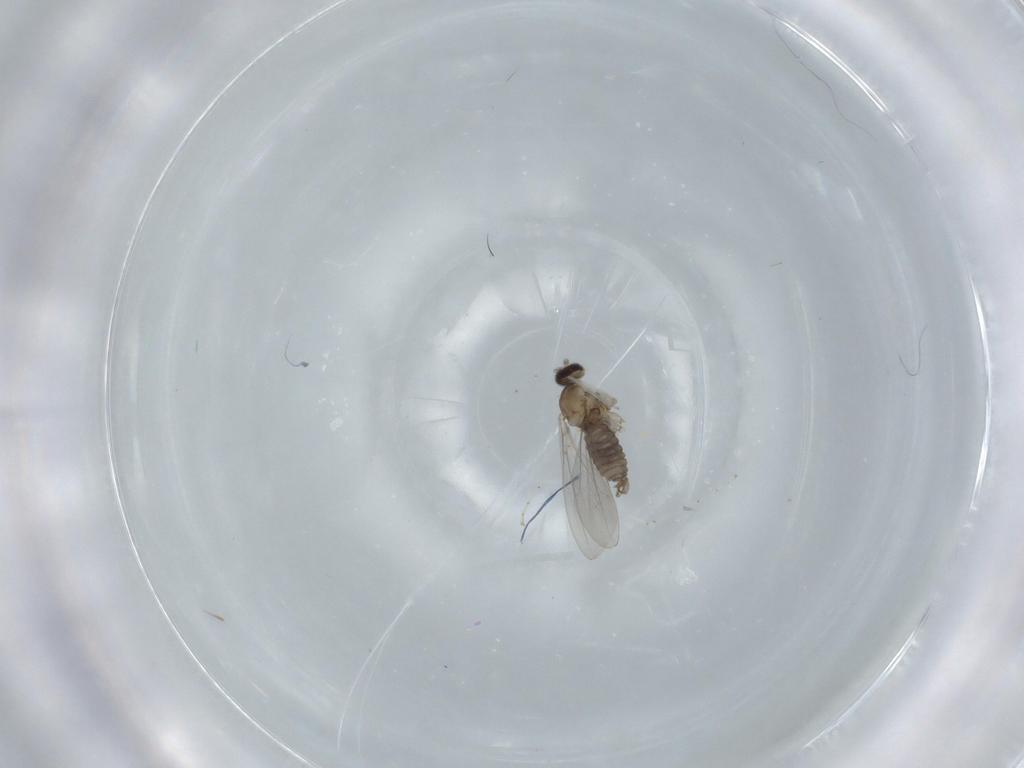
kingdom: Animalia
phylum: Arthropoda
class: Insecta
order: Diptera
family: Cecidomyiidae
